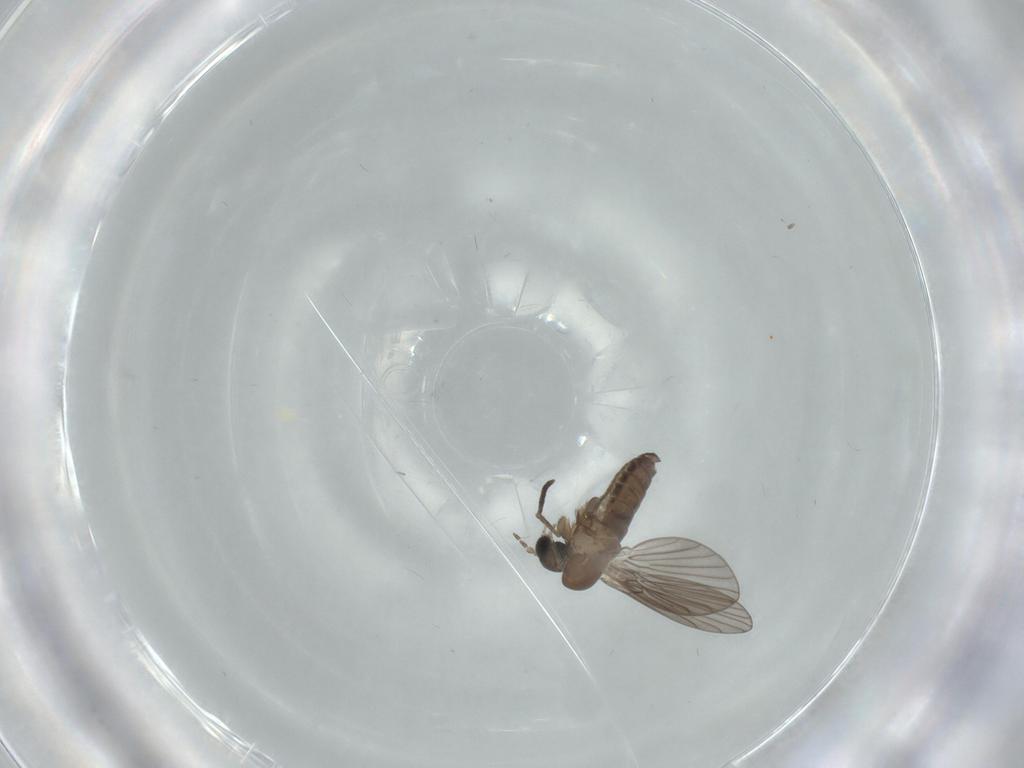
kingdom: Animalia
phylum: Arthropoda
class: Insecta
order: Diptera
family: Psychodidae
